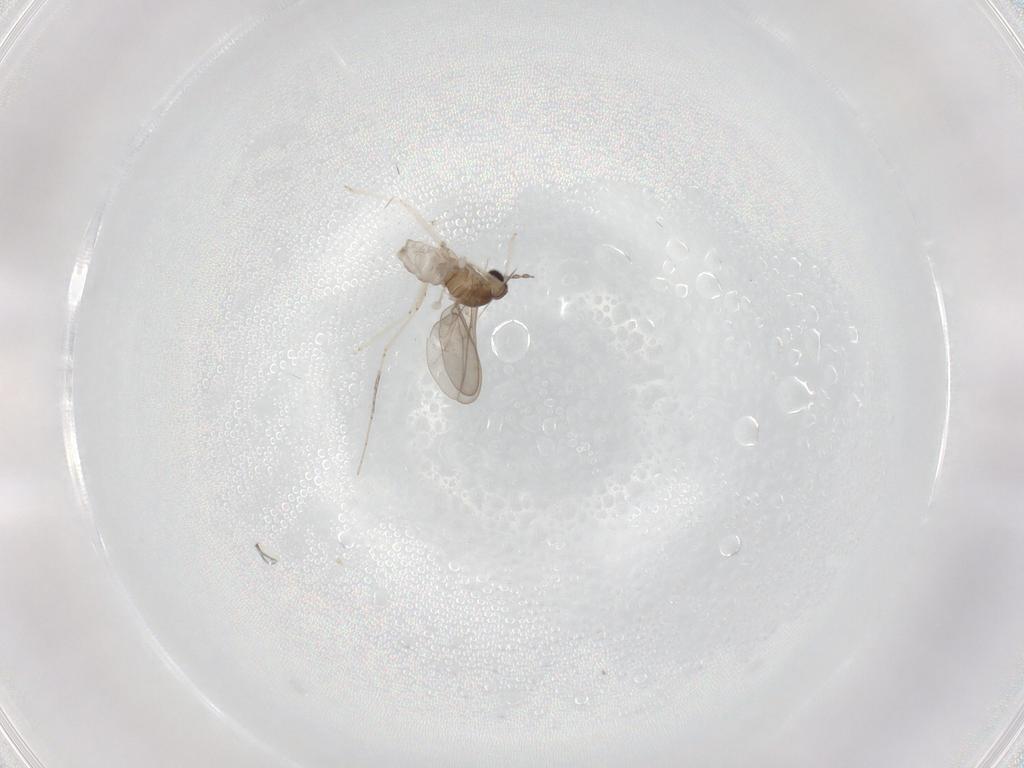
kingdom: Animalia
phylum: Arthropoda
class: Insecta
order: Diptera
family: Cecidomyiidae
